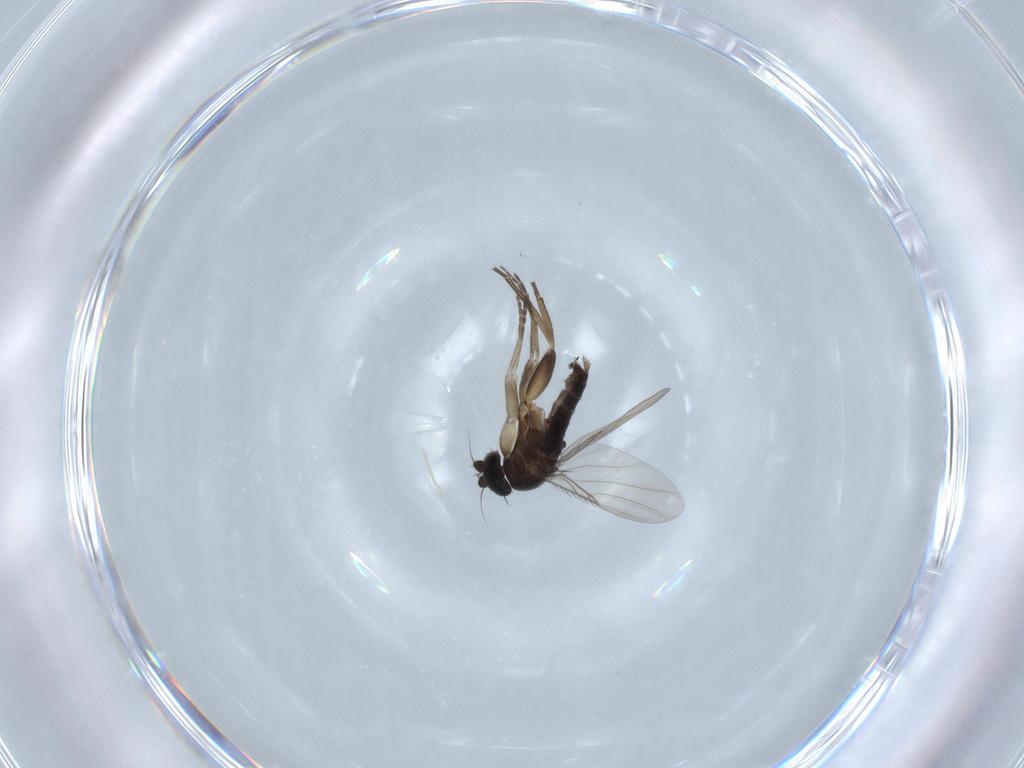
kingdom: Animalia
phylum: Arthropoda
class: Insecta
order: Diptera
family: Phoridae
